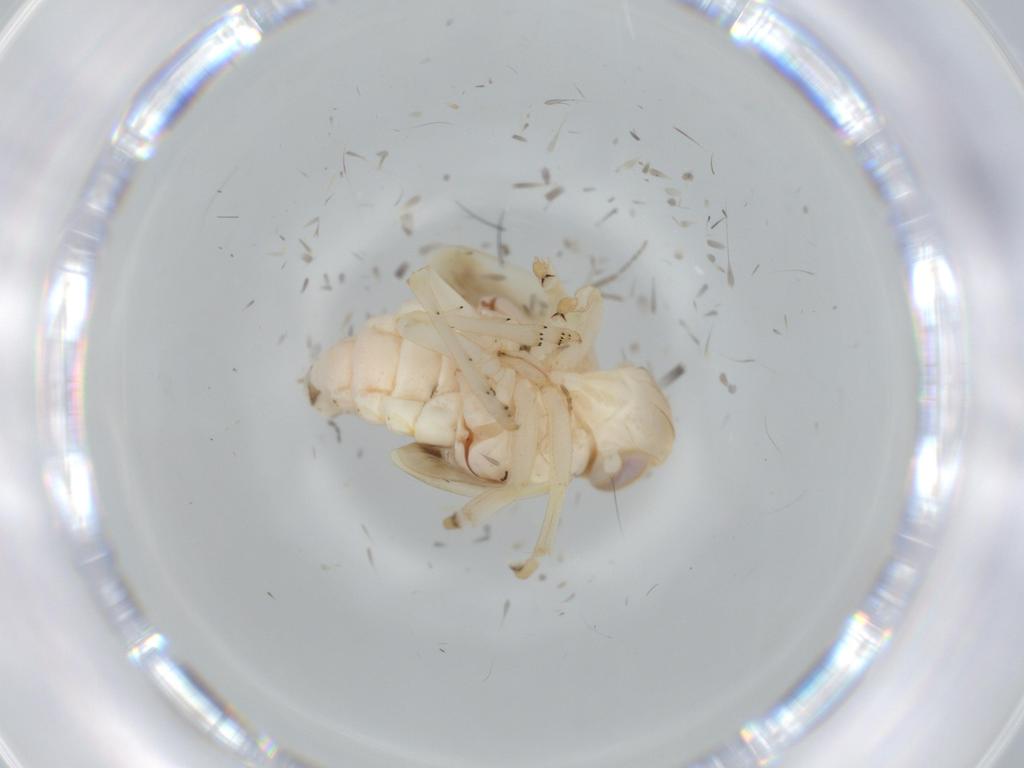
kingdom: Animalia
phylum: Arthropoda
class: Insecta
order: Hemiptera
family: Nogodinidae
